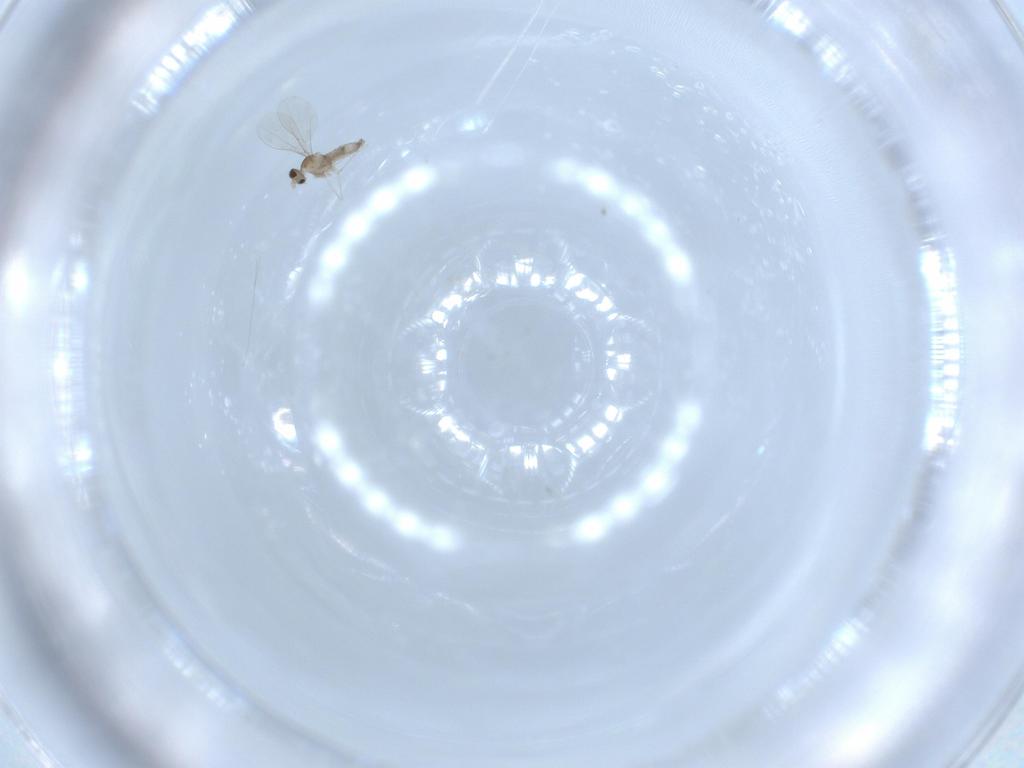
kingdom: Animalia
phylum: Arthropoda
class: Insecta
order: Diptera
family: Cecidomyiidae
